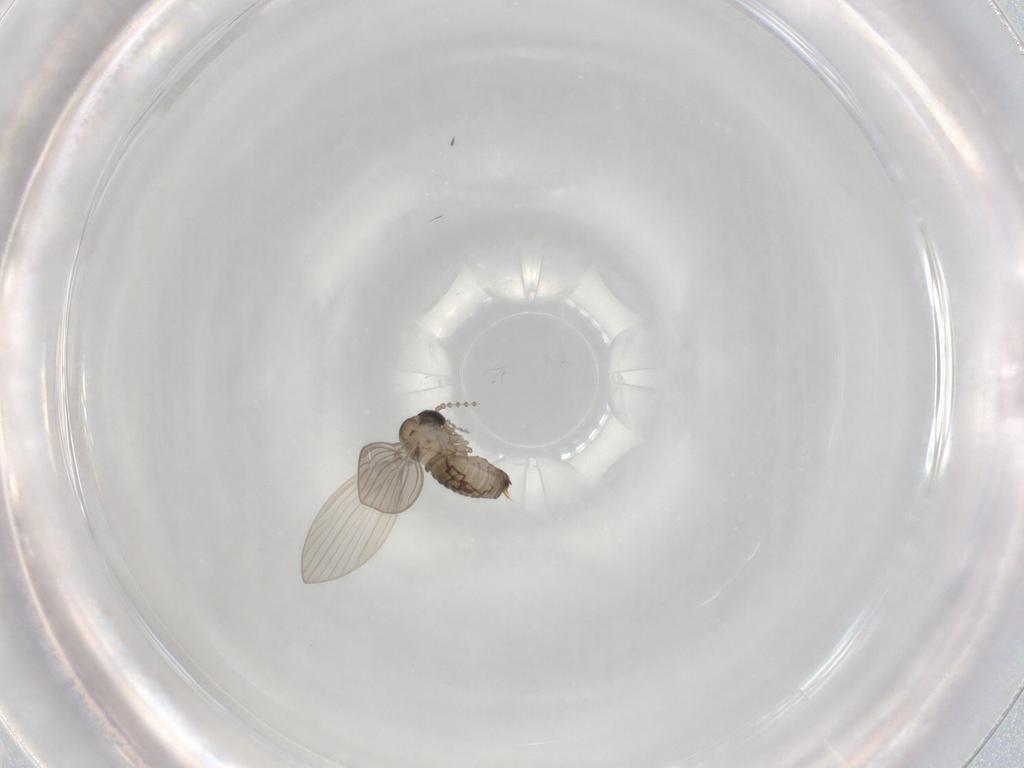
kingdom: Animalia
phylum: Arthropoda
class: Insecta
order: Diptera
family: Psychodidae
